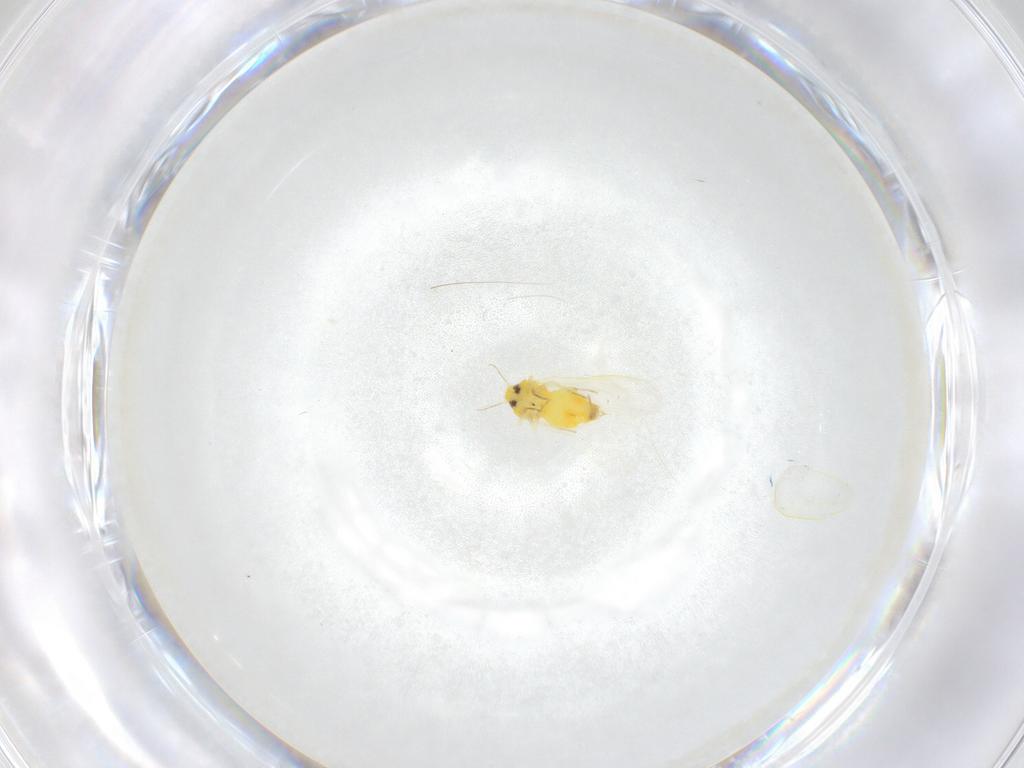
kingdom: Animalia
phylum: Arthropoda
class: Insecta
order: Hemiptera
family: Aleyrodidae
